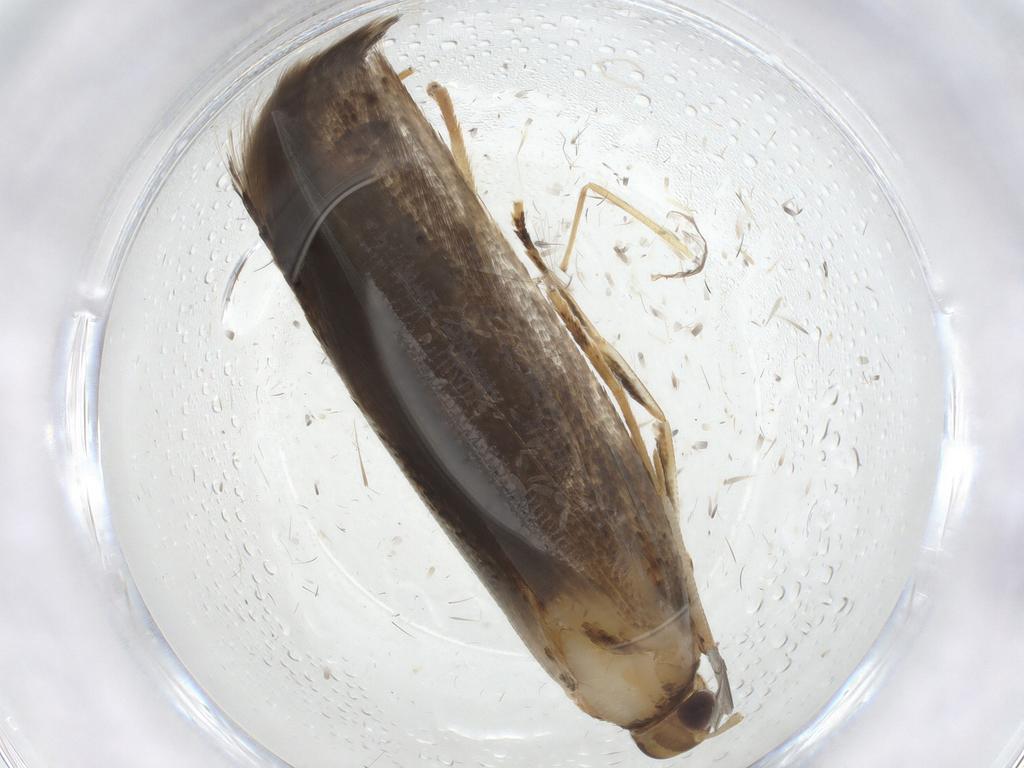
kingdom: Animalia
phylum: Arthropoda
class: Insecta
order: Lepidoptera
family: Cosmopterigidae
